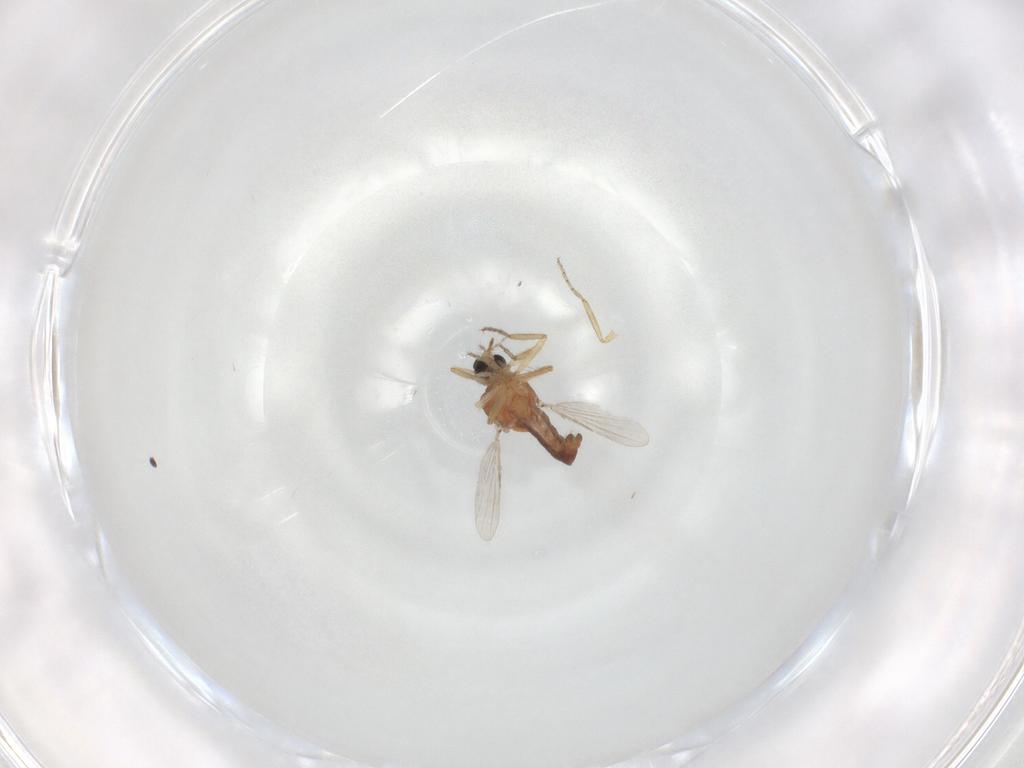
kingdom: Animalia
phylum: Arthropoda
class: Insecta
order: Diptera
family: Ceratopogonidae
